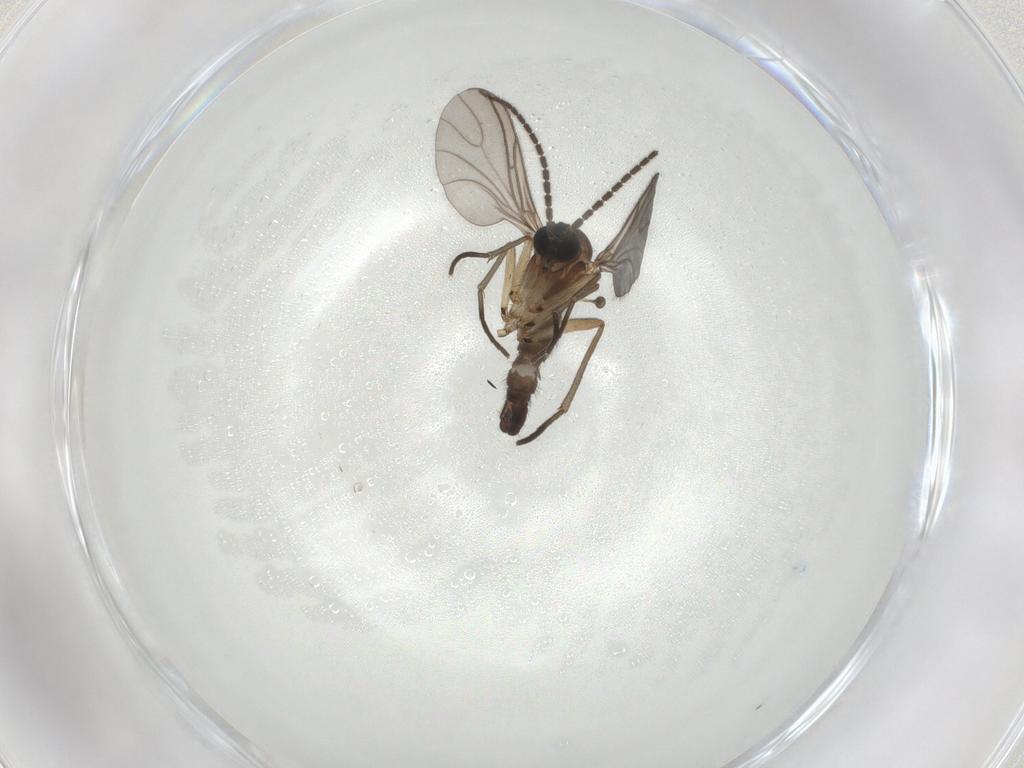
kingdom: Animalia
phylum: Arthropoda
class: Insecta
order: Diptera
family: Sciaridae
